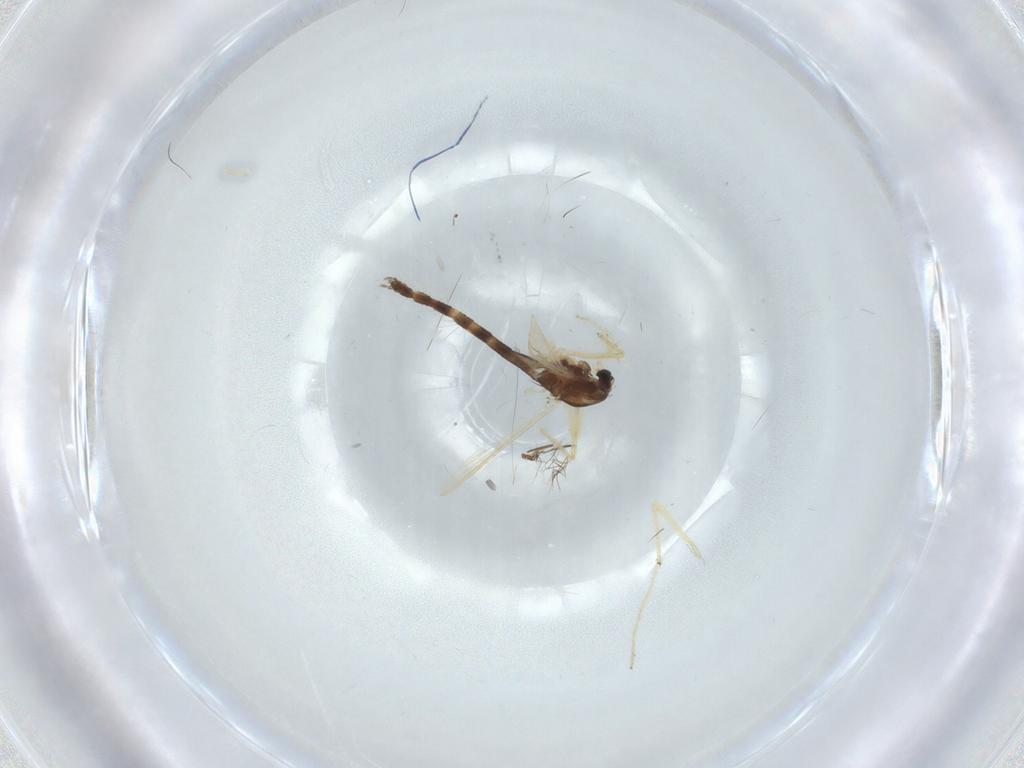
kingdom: Animalia
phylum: Arthropoda
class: Insecta
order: Diptera
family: Chironomidae
